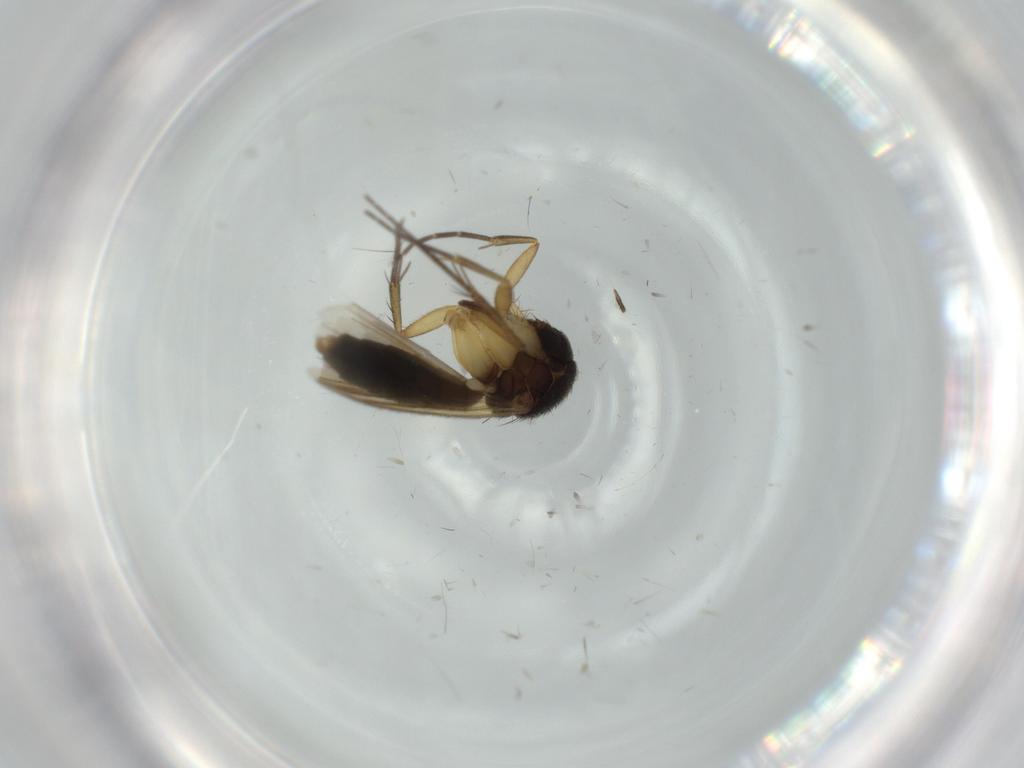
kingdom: Animalia
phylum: Arthropoda
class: Insecta
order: Diptera
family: Mycetophilidae
